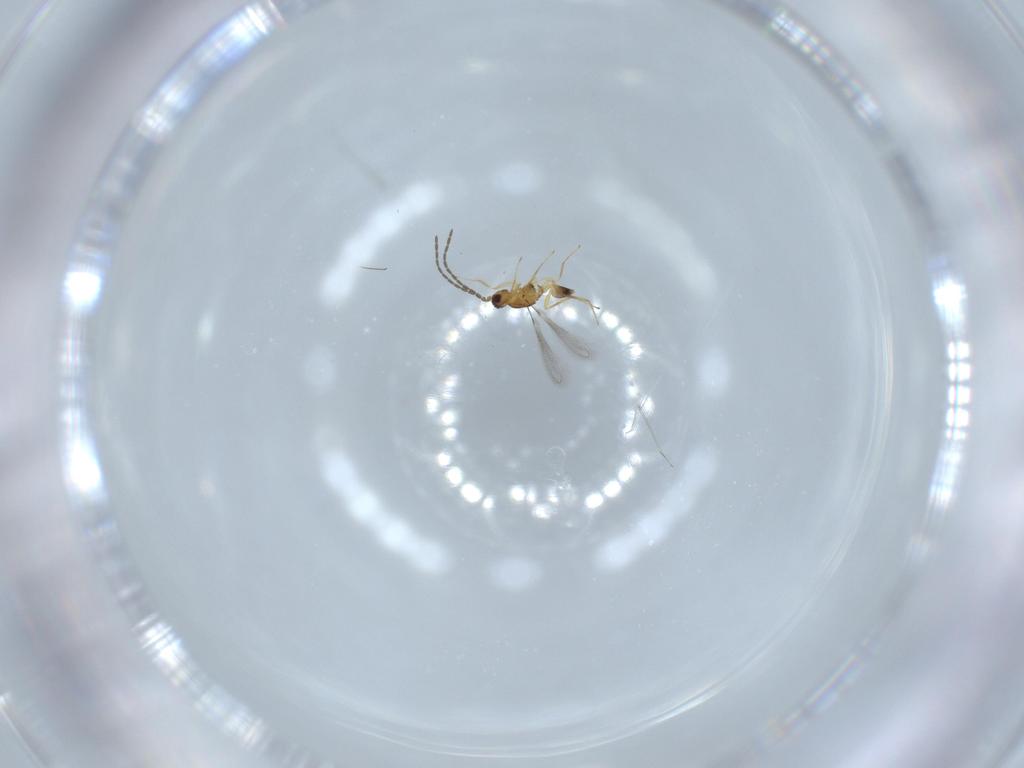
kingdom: Animalia
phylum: Arthropoda
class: Insecta
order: Hymenoptera
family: Mymaridae
